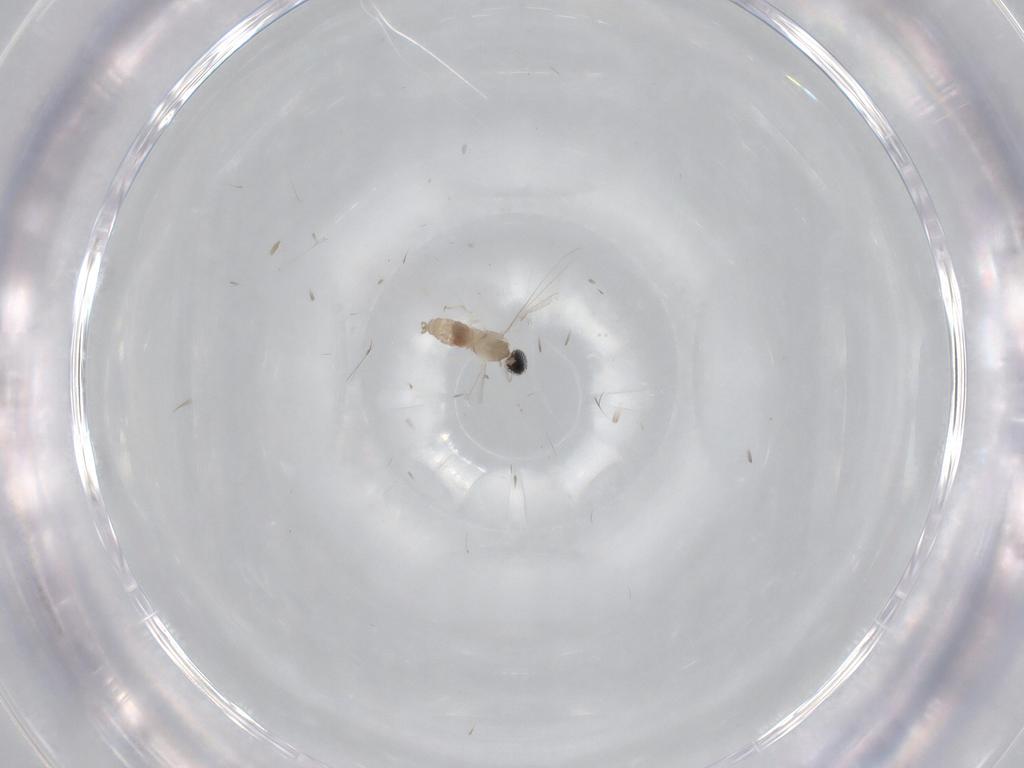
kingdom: Animalia
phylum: Arthropoda
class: Insecta
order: Diptera
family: Cecidomyiidae
